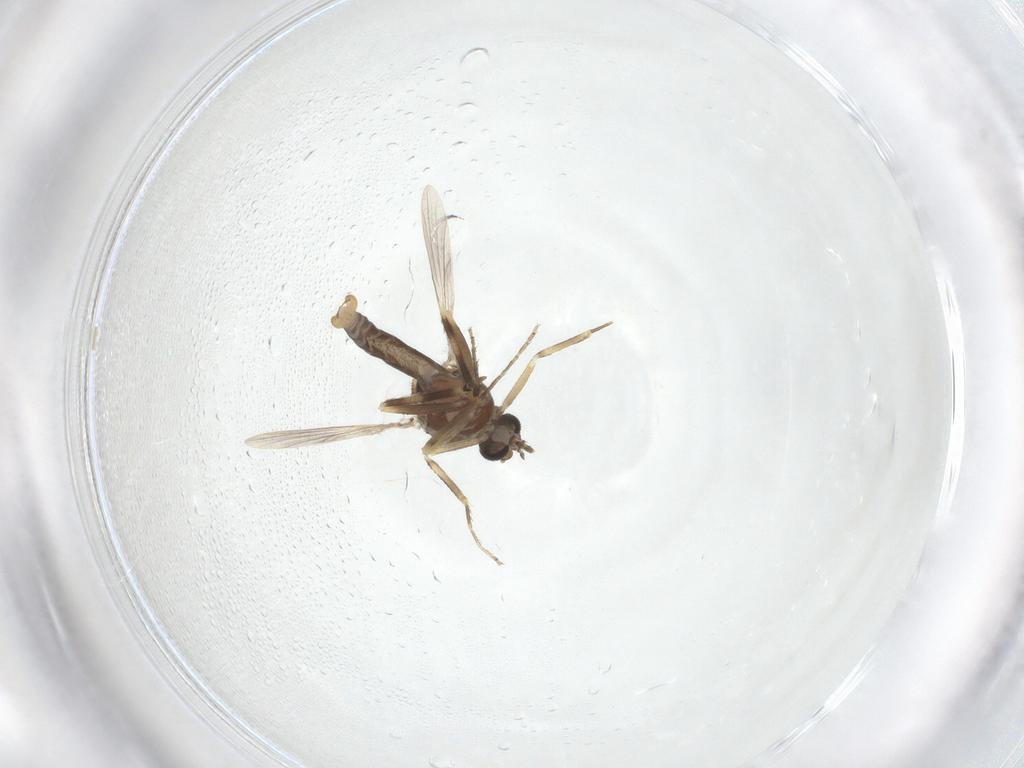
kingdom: Animalia
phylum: Arthropoda
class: Insecta
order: Diptera
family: Ceratopogonidae
